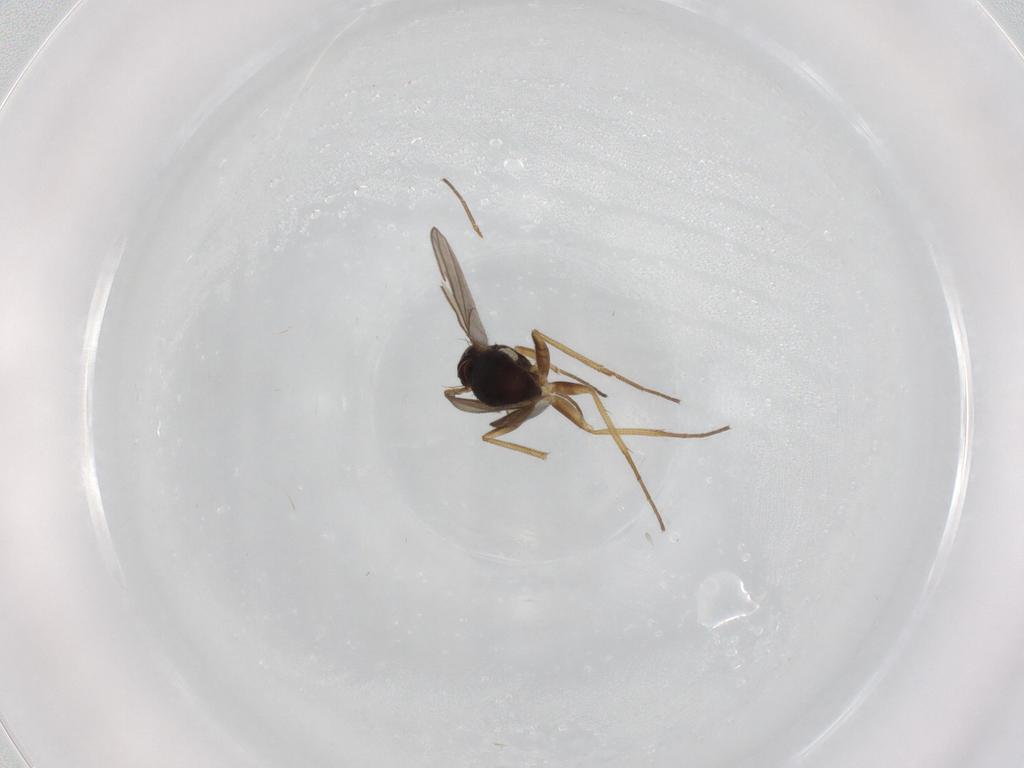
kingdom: Animalia
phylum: Arthropoda
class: Insecta
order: Diptera
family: Dolichopodidae
